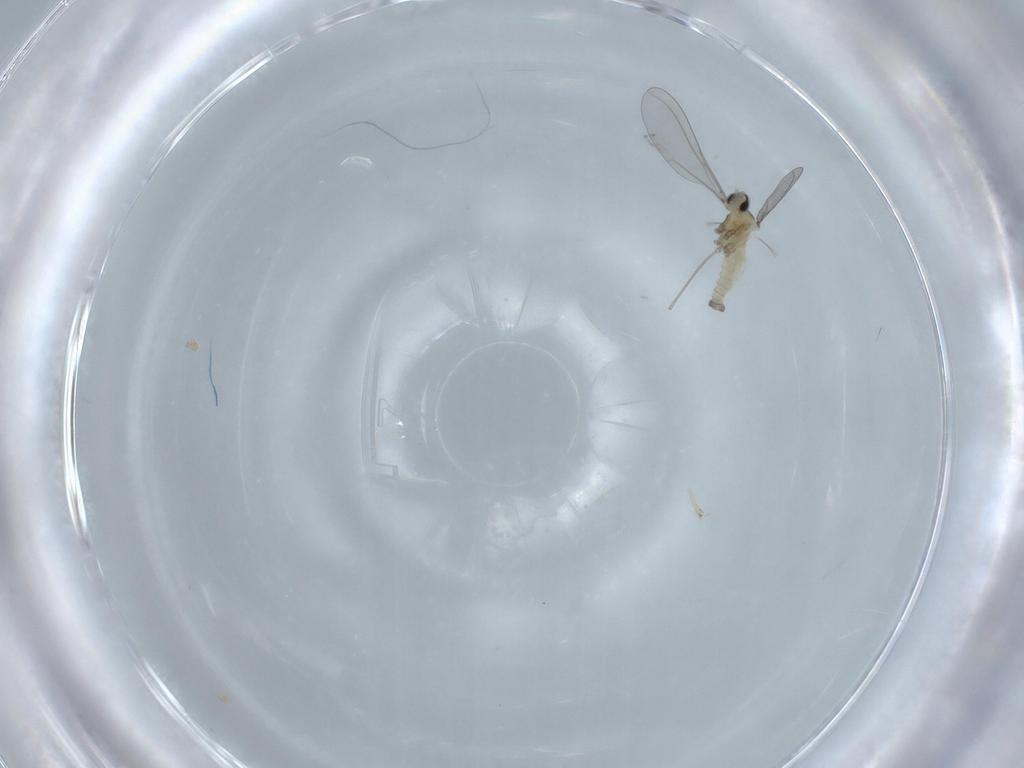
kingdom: Animalia
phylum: Arthropoda
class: Insecta
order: Diptera
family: Cecidomyiidae
